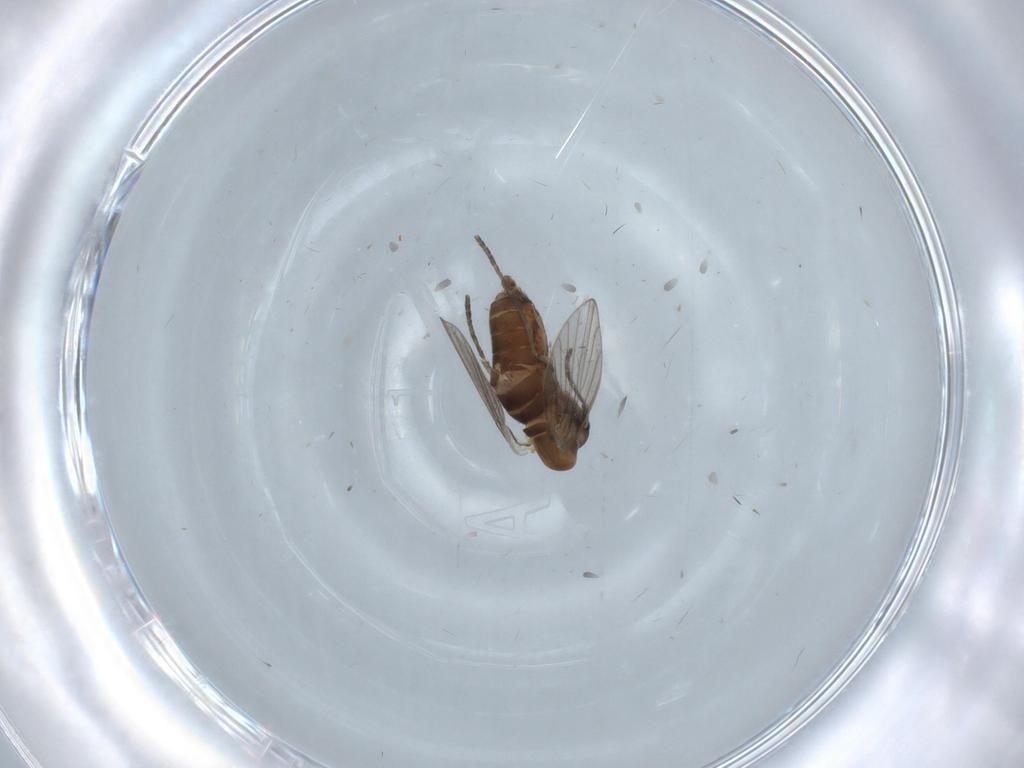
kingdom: Animalia
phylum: Arthropoda
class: Insecta
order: Diptera
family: Psychodidae
